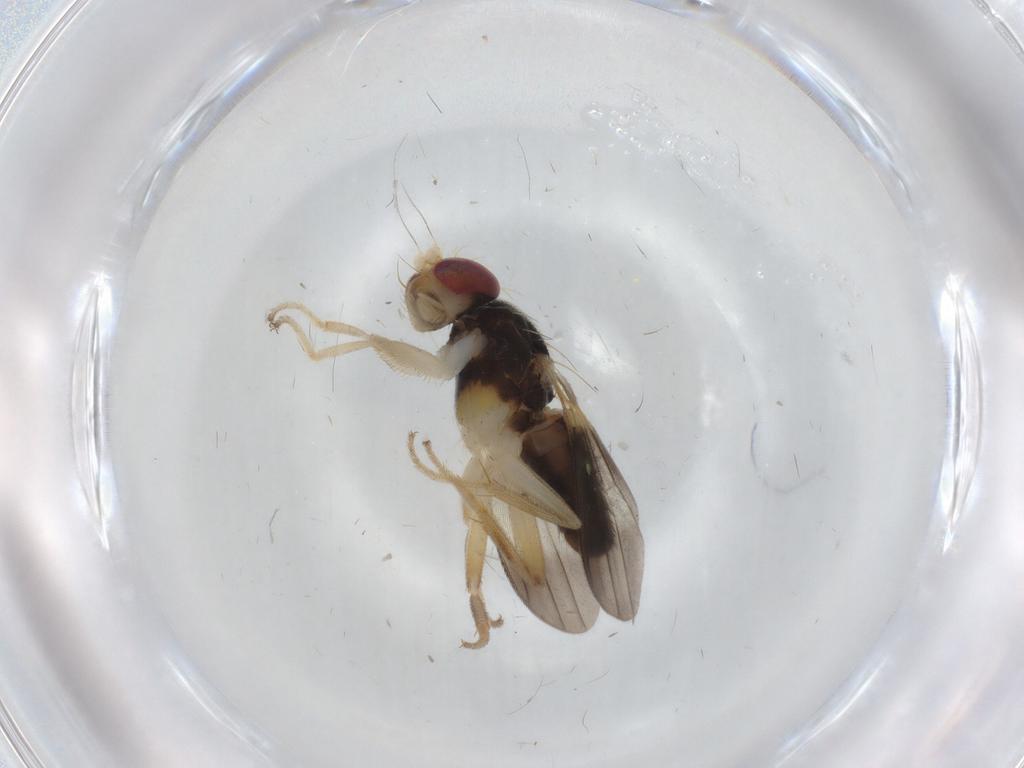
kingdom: Animalia
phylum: Arthropoda
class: Insecta
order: Diptera
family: Clusiidae
